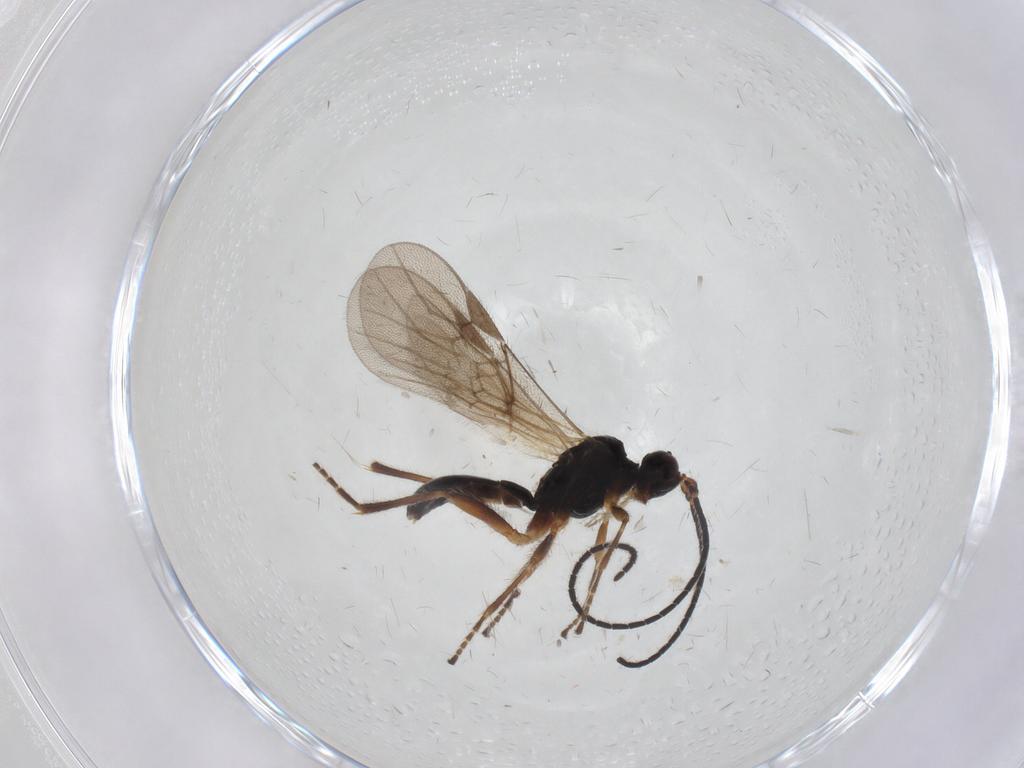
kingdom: Animalia
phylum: Arthropoda
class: Insecta
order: Hymenoptera
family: Braconidae
